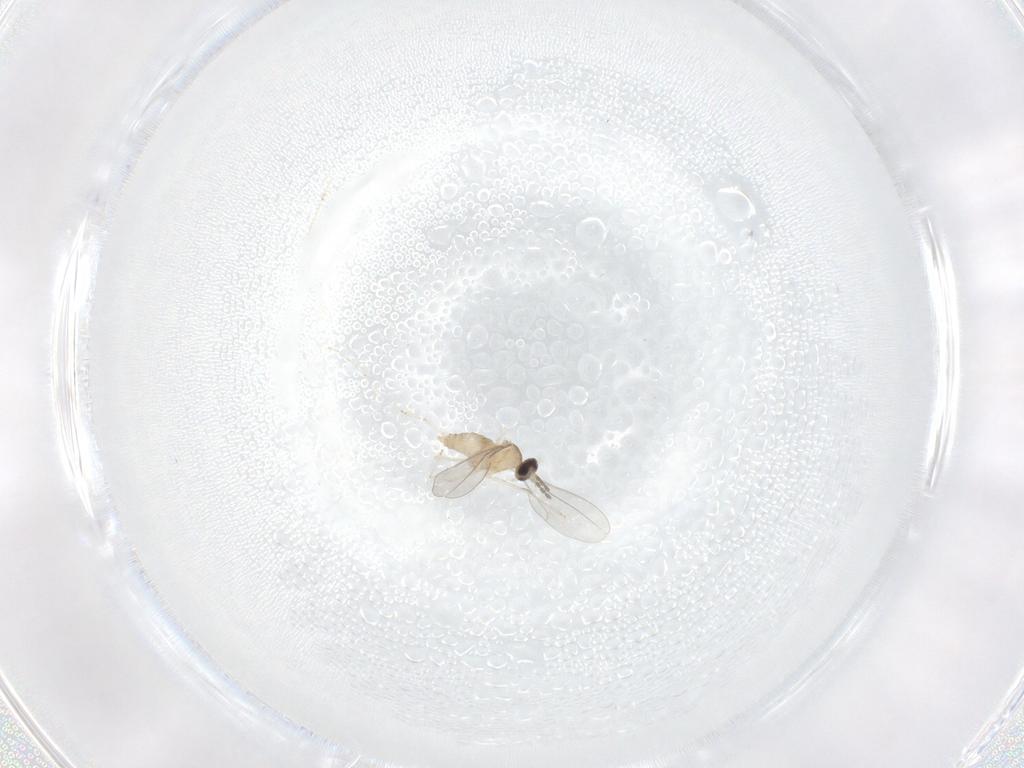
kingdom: Animalia
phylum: Arthropoda
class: Insecta
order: Diptera
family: Cecidomyiidae
